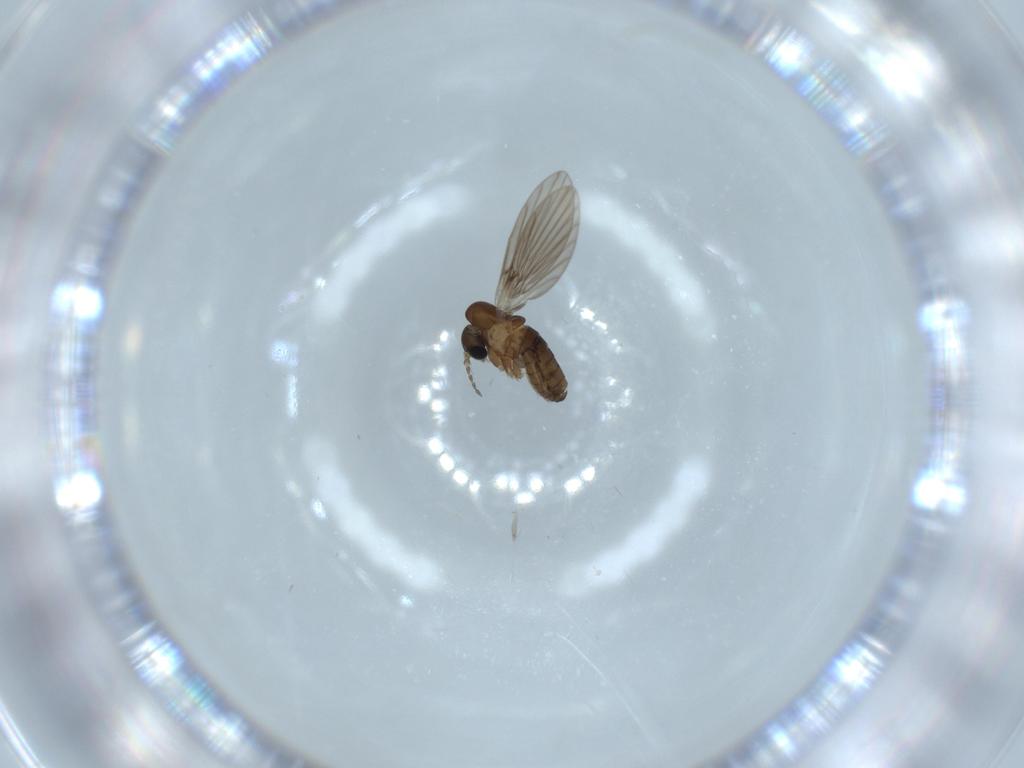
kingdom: Animalia
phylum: Arthropoda
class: Insecta
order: Diptera
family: Psychodidae
